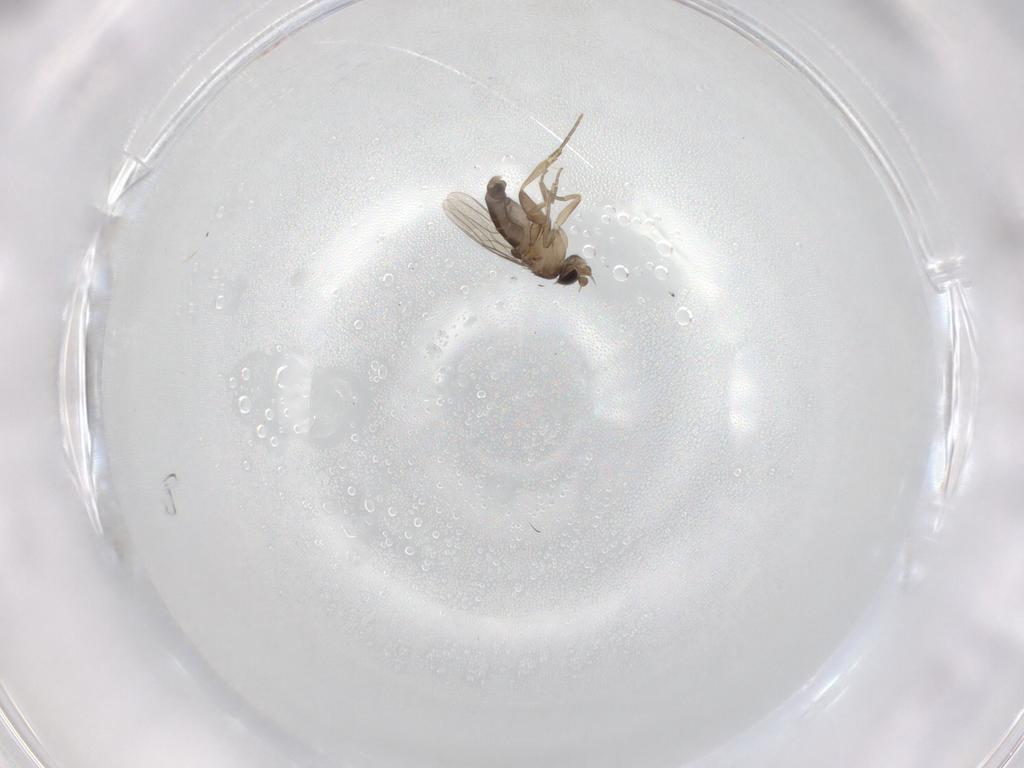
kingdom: Animalia
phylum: Arthropoda
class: Insecta
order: Diptera
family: Phoridae
